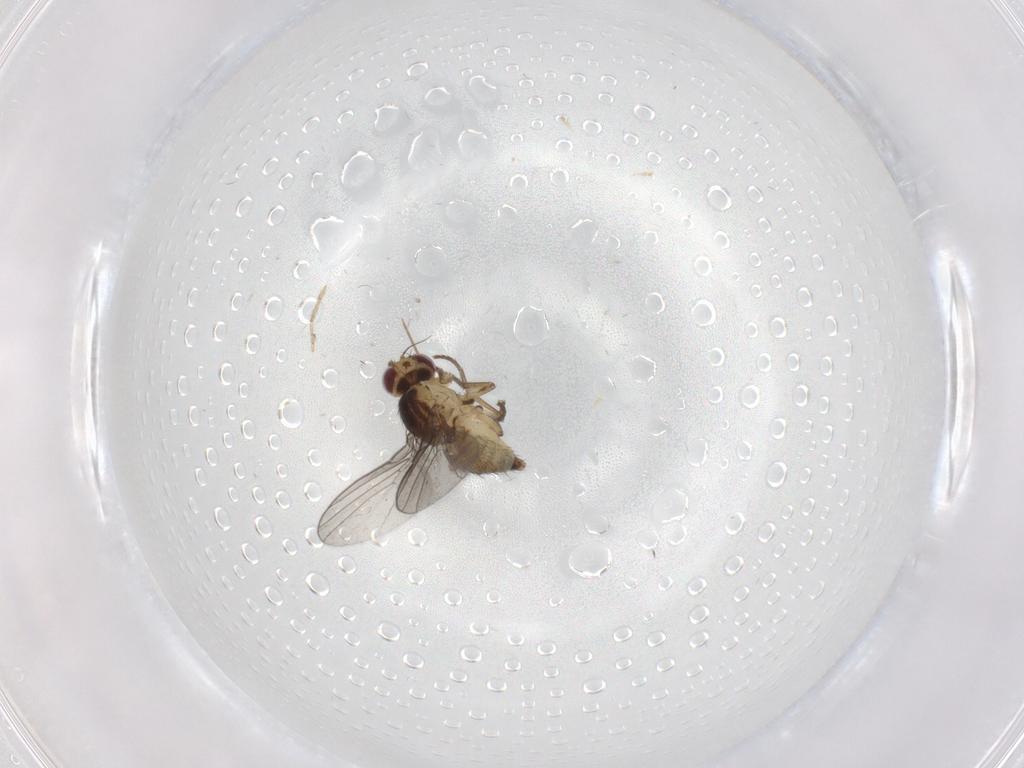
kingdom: Animalia
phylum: Arthropoda
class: Insecta
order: Diptera
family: Agromyzidae
